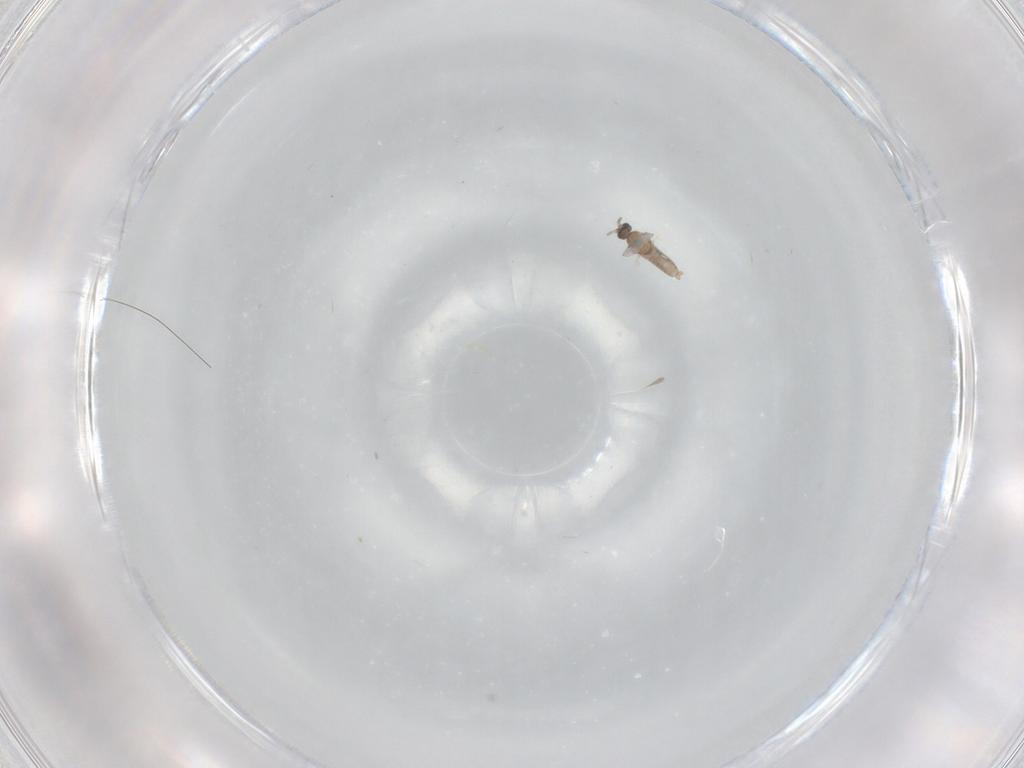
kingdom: Animalia
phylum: Arthropoda
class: Insecta
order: Diptera
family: Cecidomyiidae
